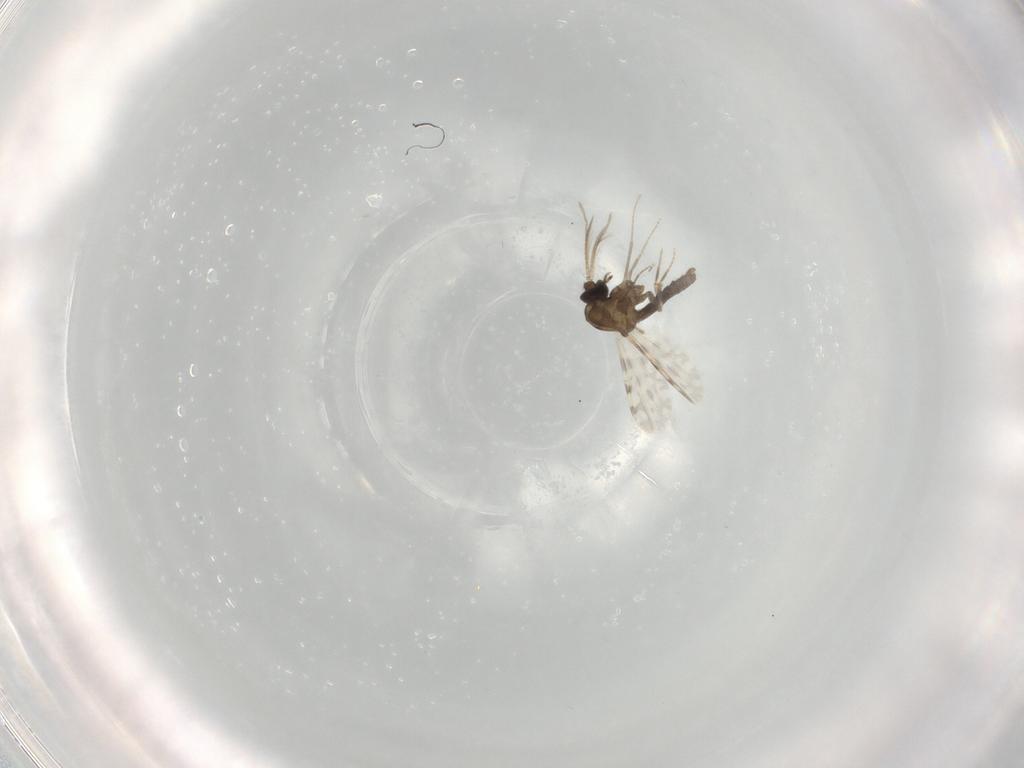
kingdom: Animalia
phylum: Arthropoda
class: Insecta
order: Diptera
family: Ceratopogonidae
